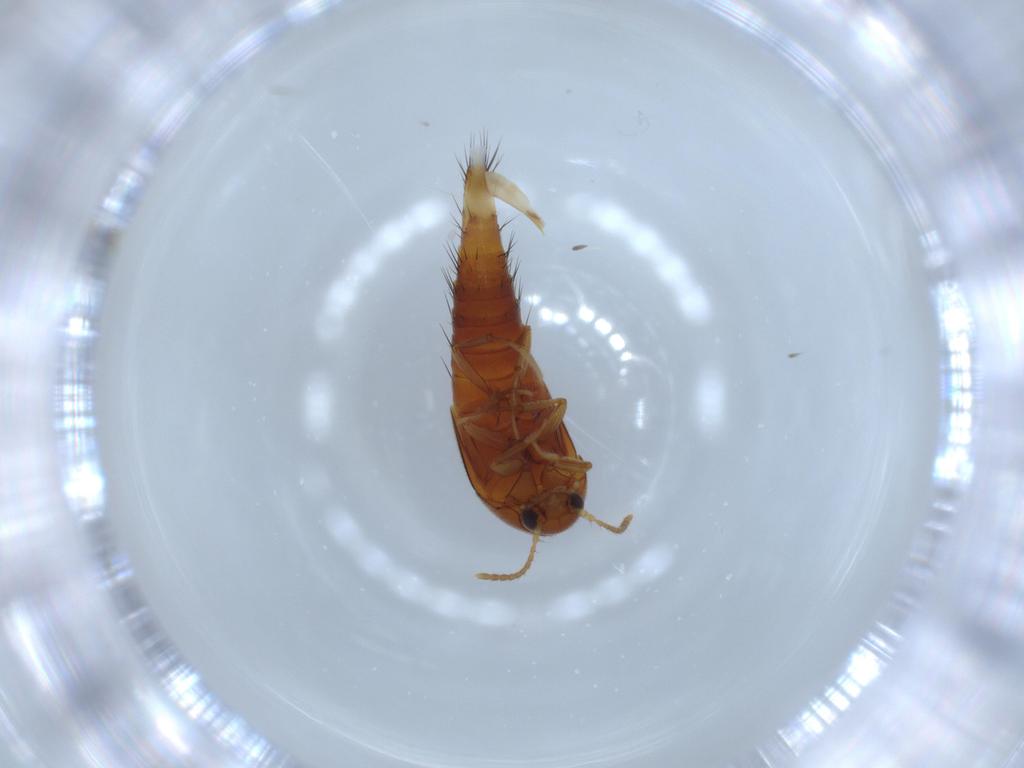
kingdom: Animalia
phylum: Arthropoda
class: Insecta
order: Coleoptera
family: Staphylinidae
